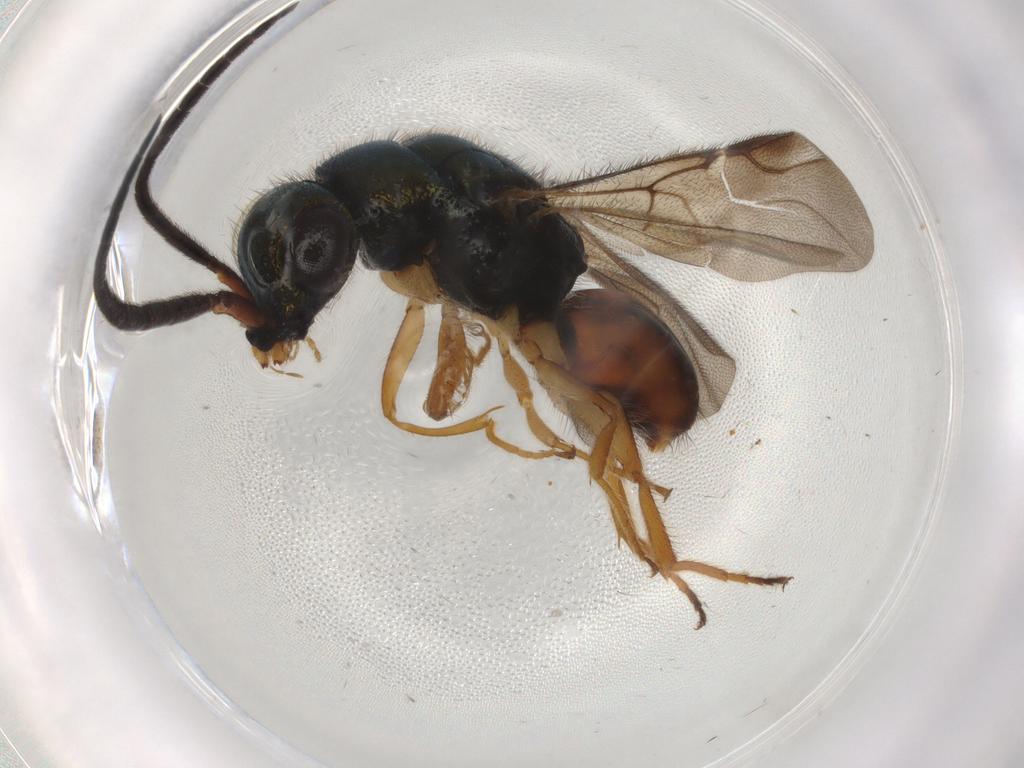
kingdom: Animalia
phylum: Arthropoda
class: Insecta
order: Hymenoptera
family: Chrysididae
